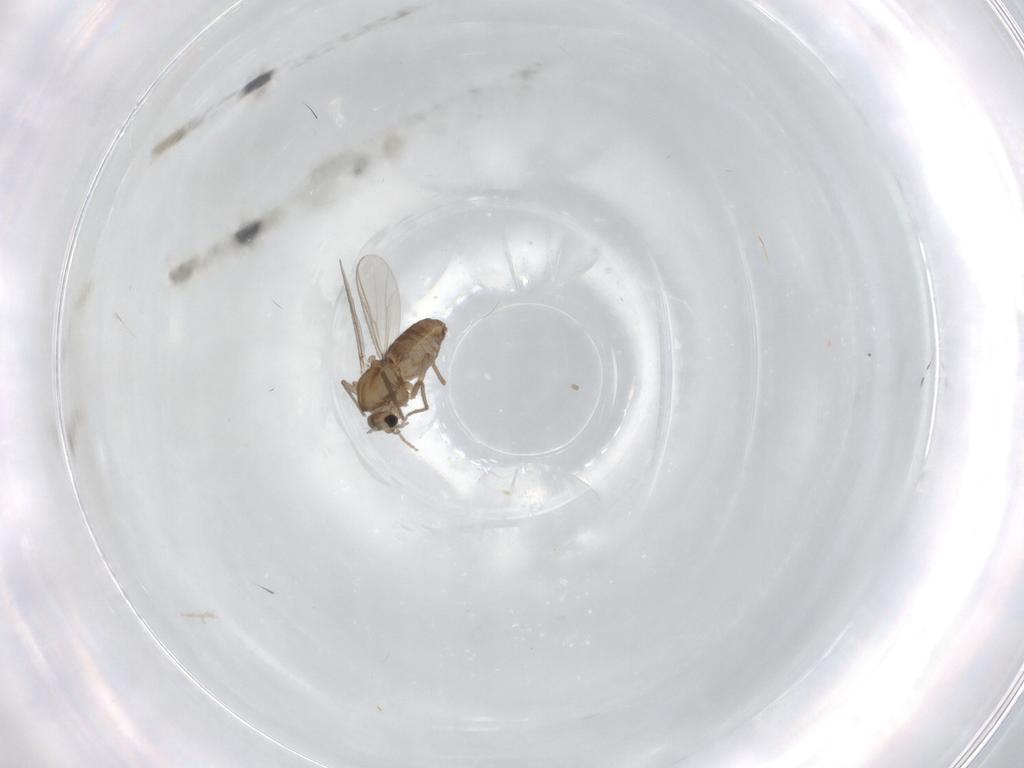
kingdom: Animalia
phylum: Arthropoda
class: Insecta
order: Diptera
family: Chironomidae
